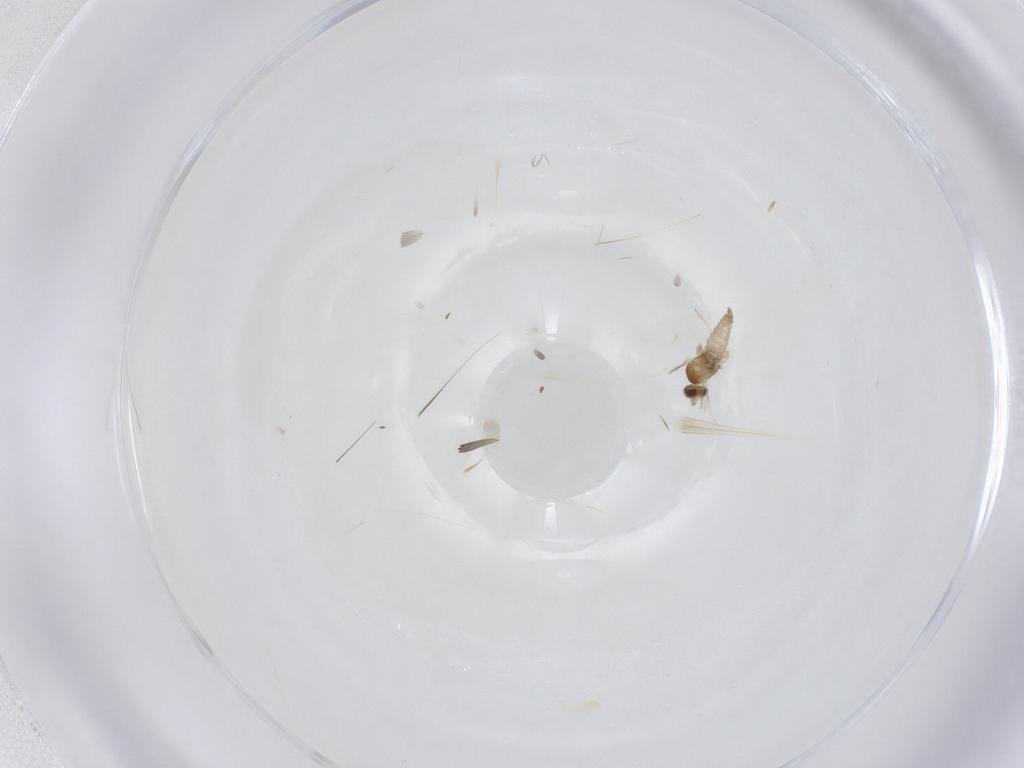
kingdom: Animalia
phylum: Arthropoda
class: Insecta
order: Diptera
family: Cecidomyiidae
